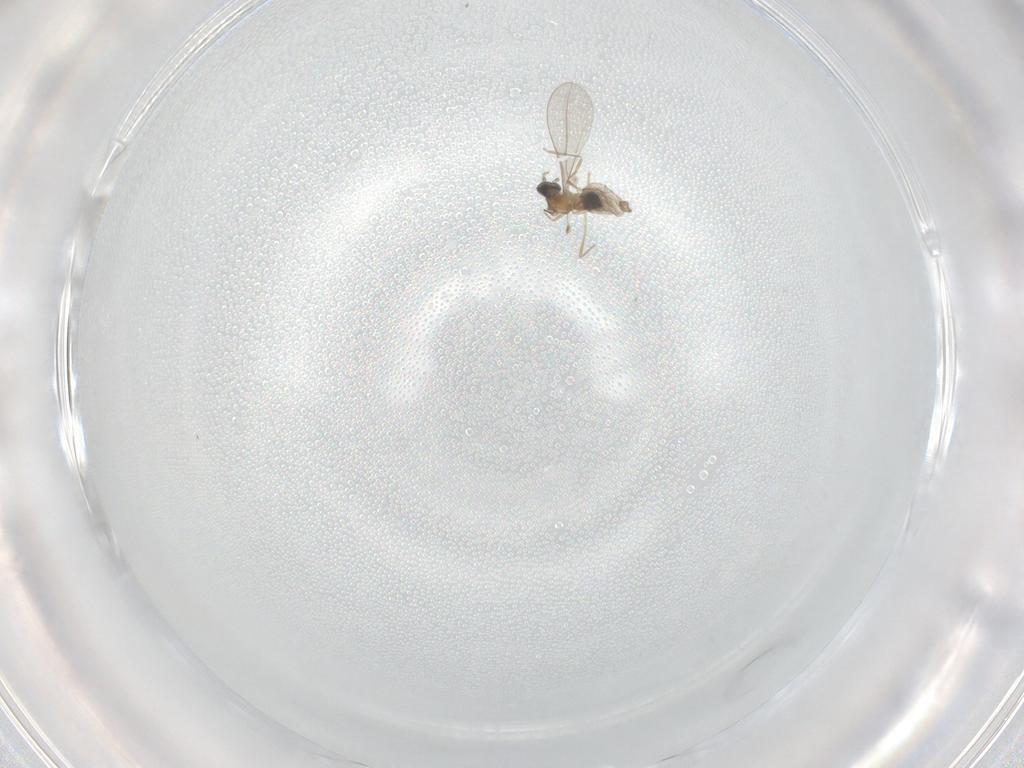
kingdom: Animalia
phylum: Arthropoda
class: Insecta
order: Diptera
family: Cecidomyiidae
